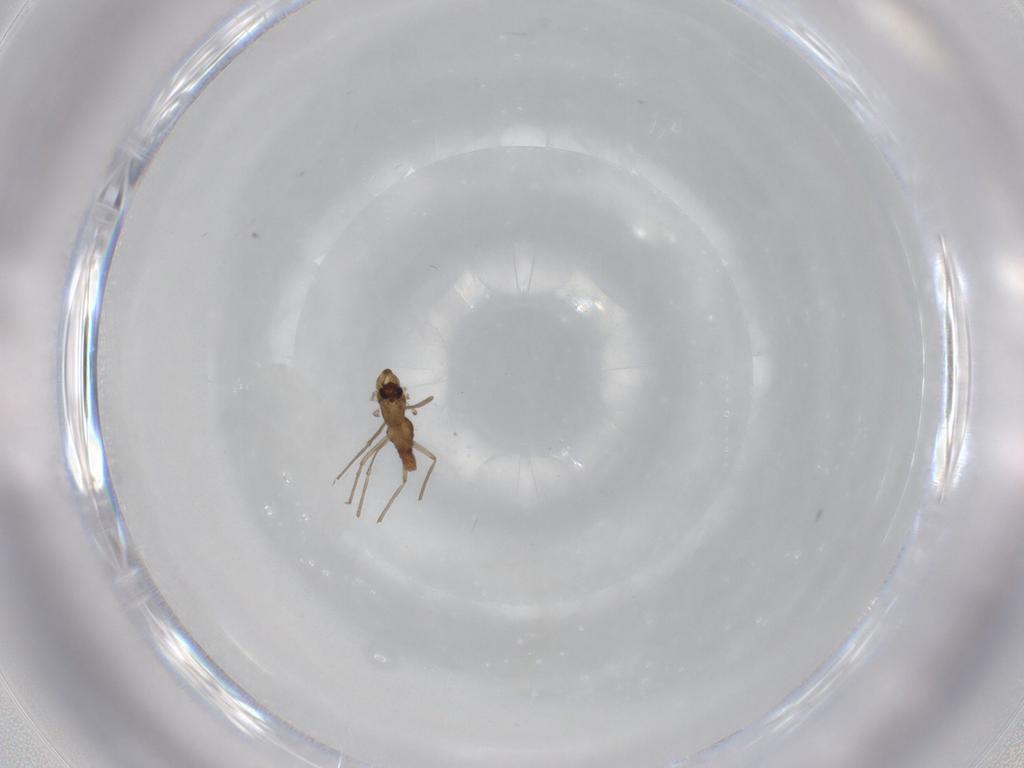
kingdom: Animalia
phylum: Arthropoda
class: Insecta
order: Diptera
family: Chironomidae
